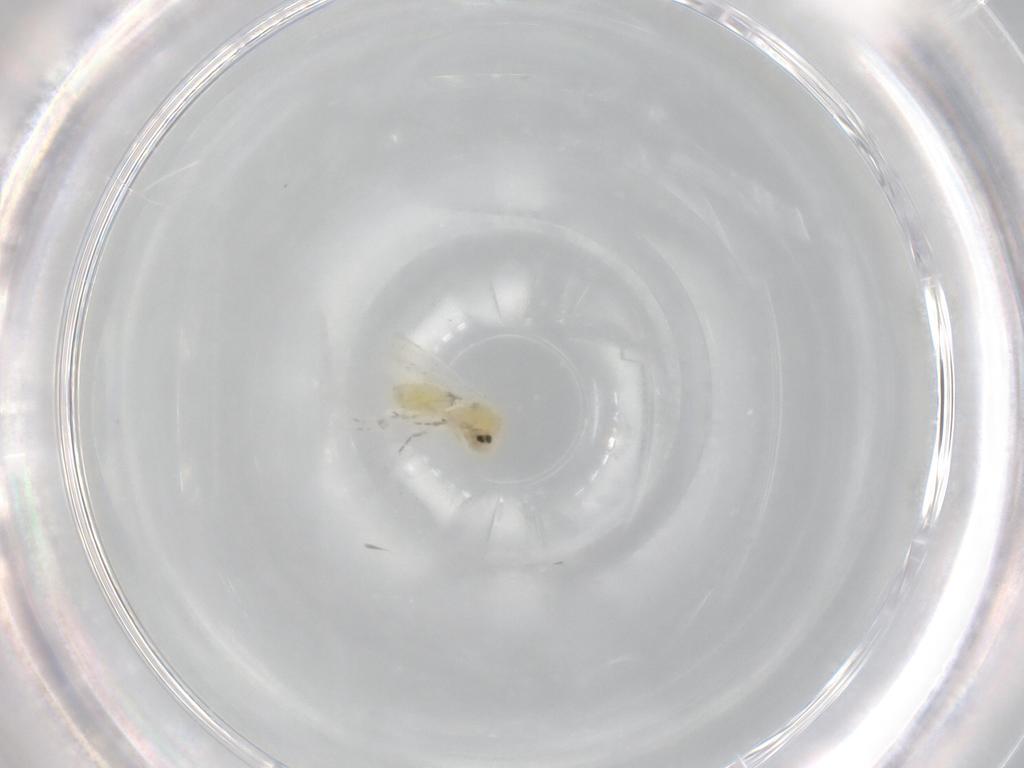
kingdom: Animalia
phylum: Arthropoda
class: Insecta
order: Hemiptera
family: Aleyrodidae
